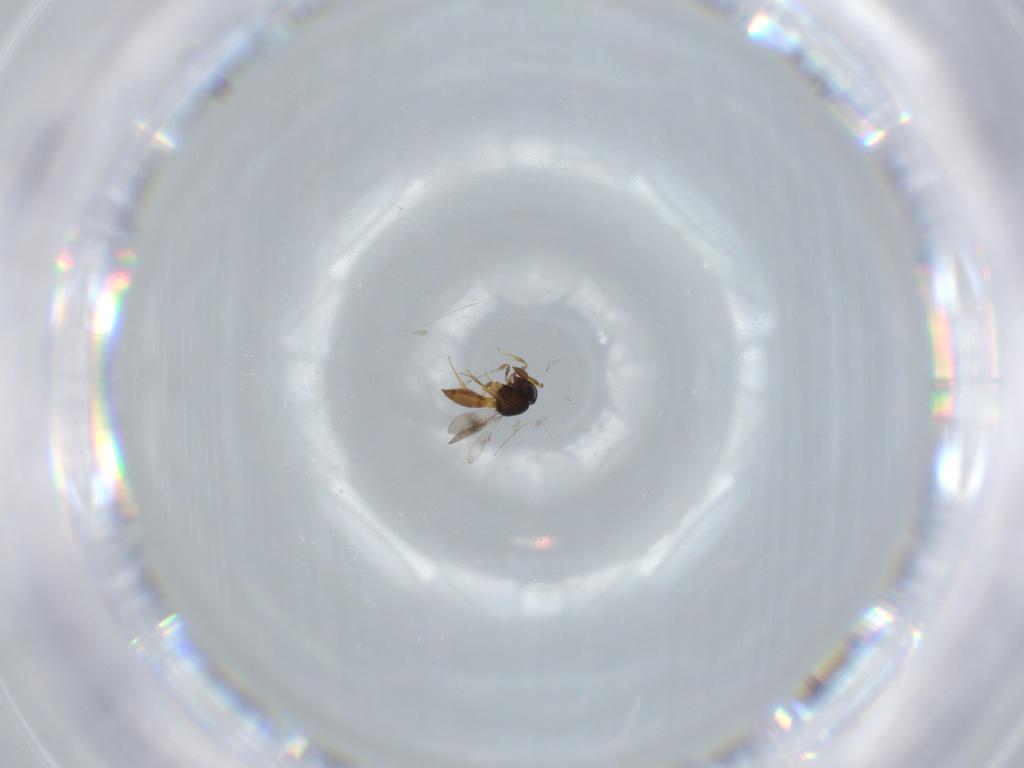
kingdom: Animalia
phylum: Arthropoda
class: Insecta
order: Hymenoptera
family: Scelionidae
